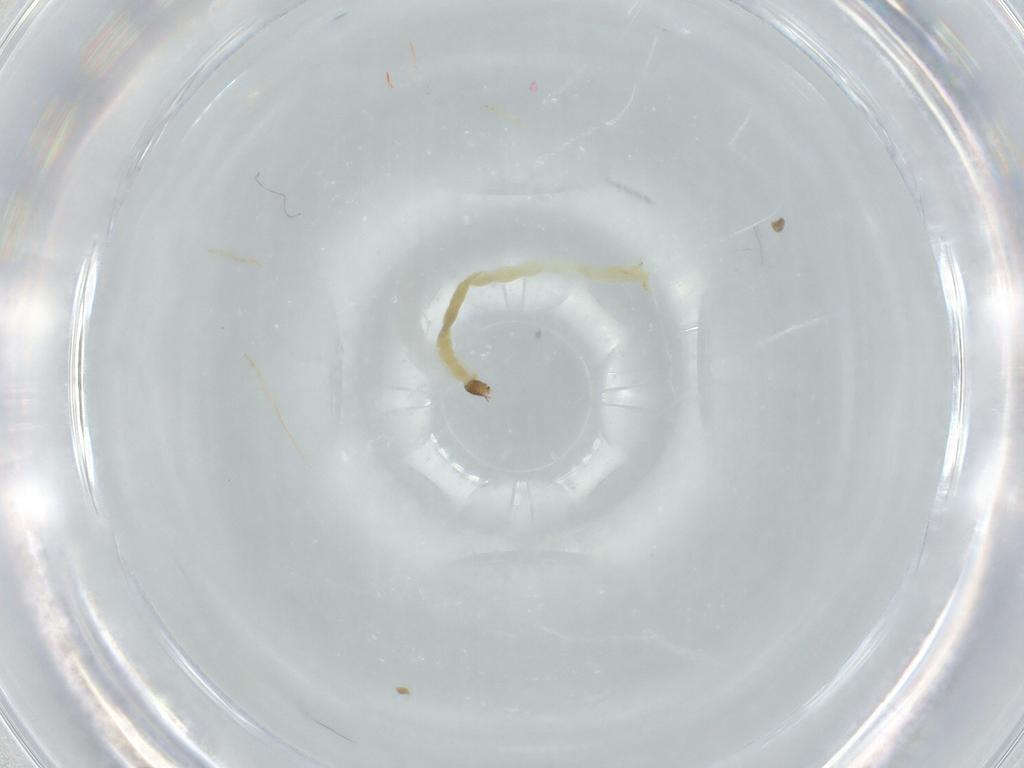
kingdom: Animalia
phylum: Arthropoda
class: Insecta
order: Diptera
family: Chironomidae
